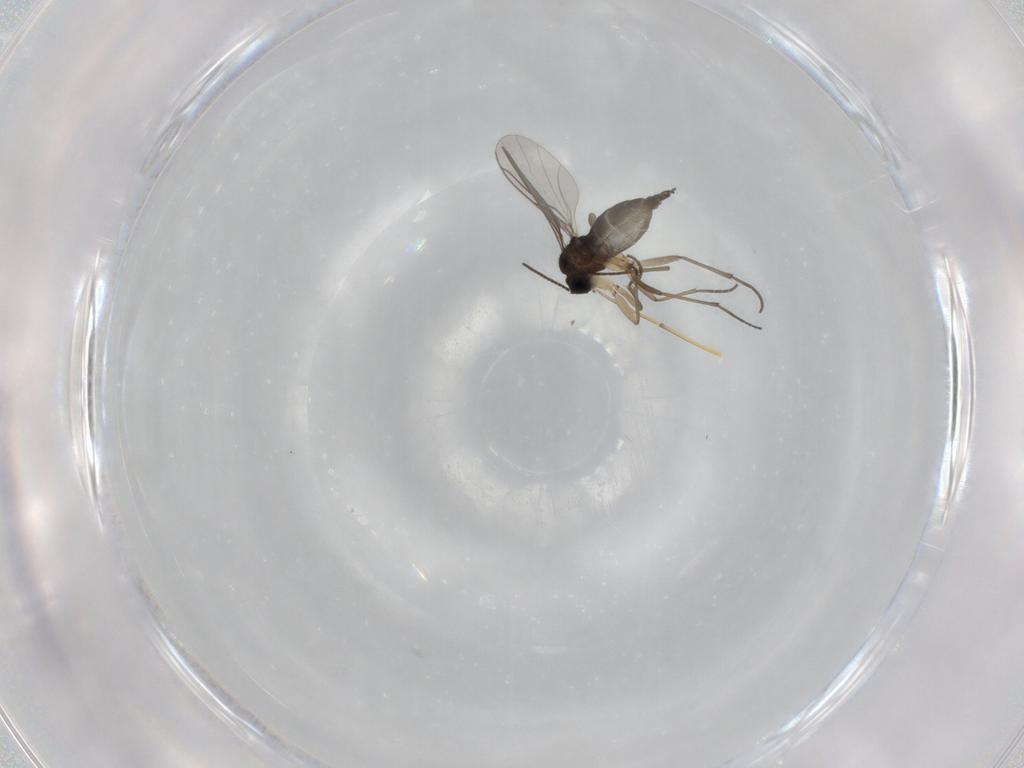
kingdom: Animalia
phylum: Arthropoda
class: Insecta
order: Diptera
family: Sciaridae
